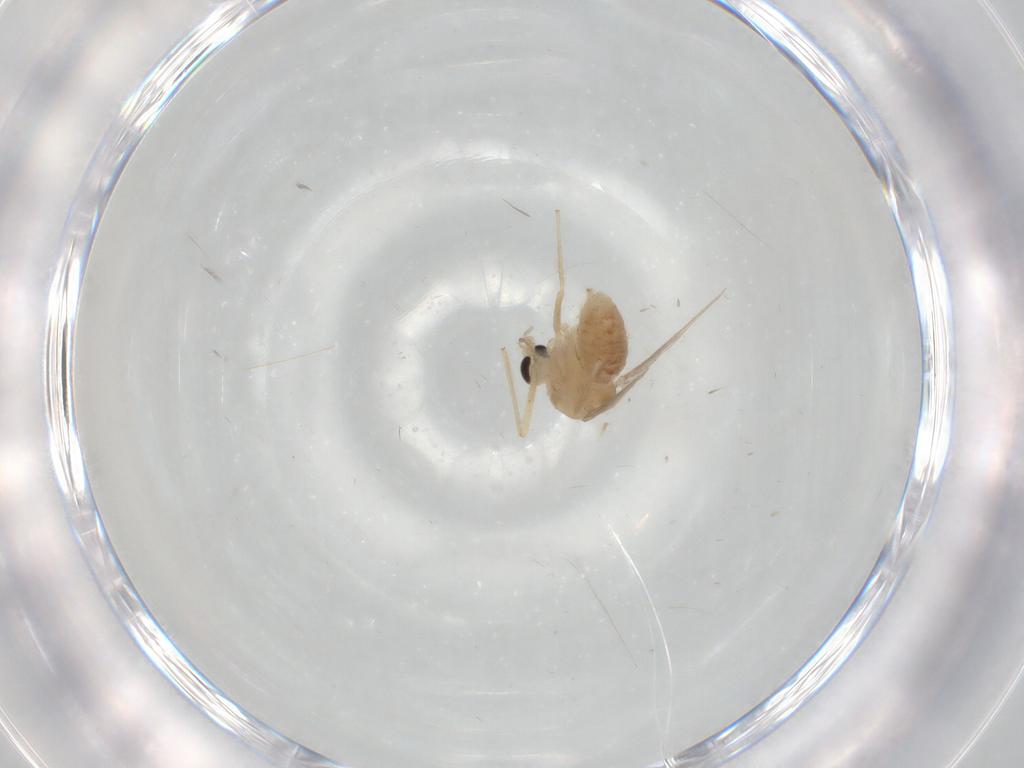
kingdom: Animalia
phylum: Arthropoda
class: Insecta
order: Diptera
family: Chironomidae
